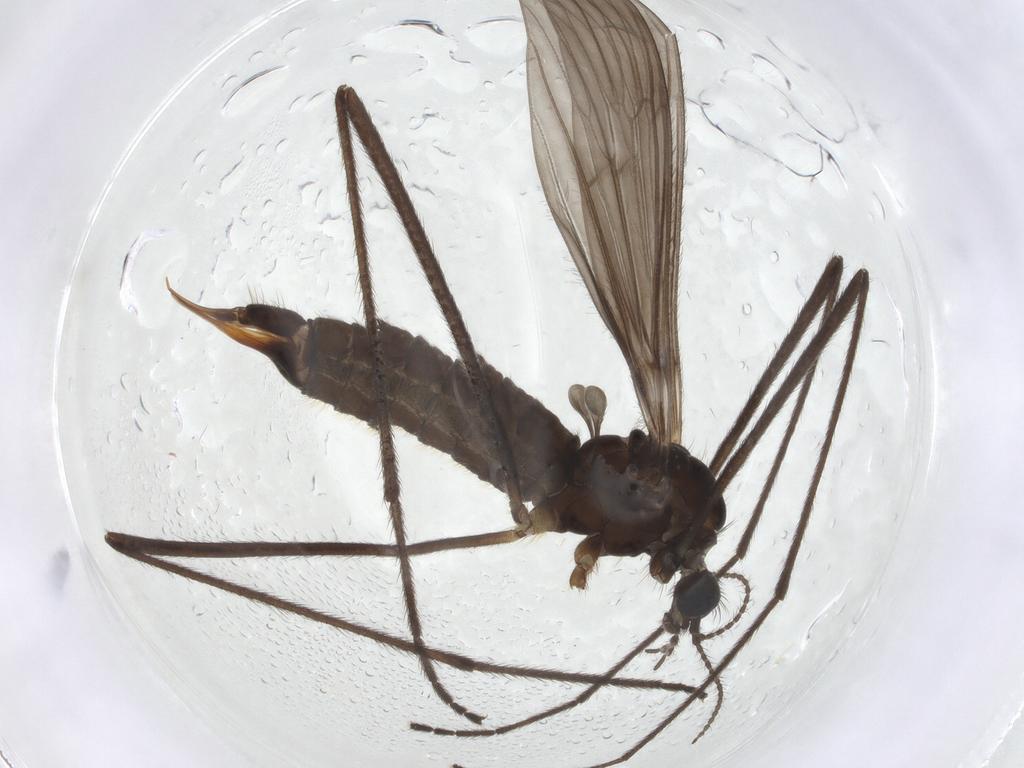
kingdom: Animalia
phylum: Arthropoda
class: Insecta
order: Diptera
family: Limoniidae
